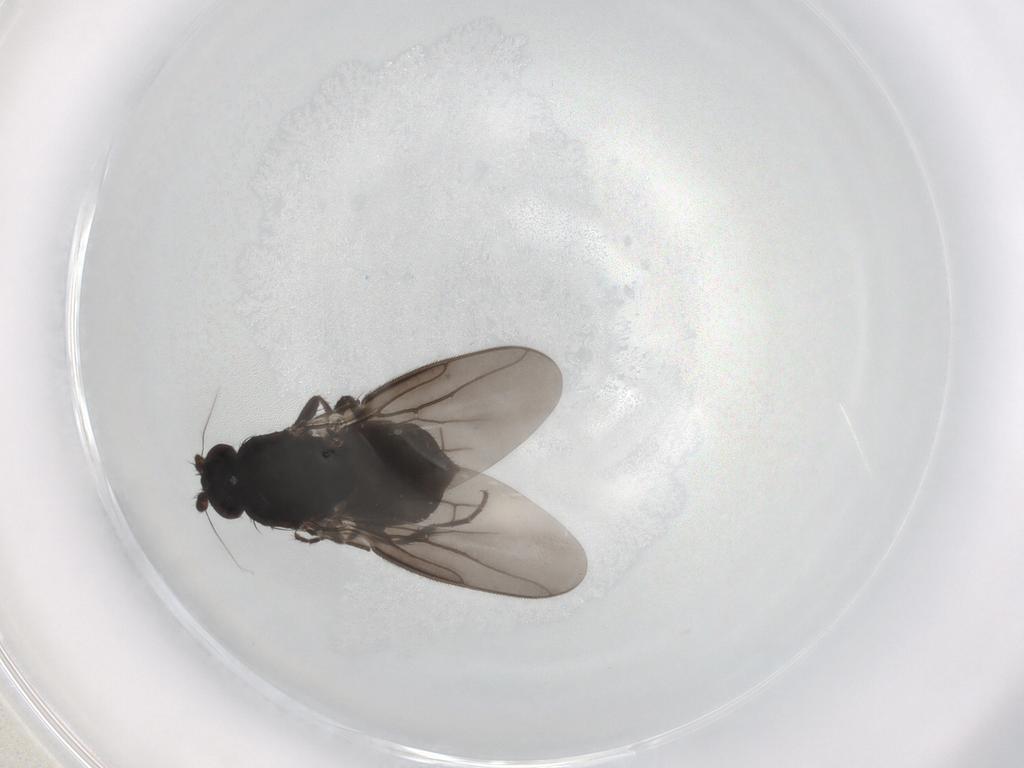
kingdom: Animalia
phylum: Arthropoda
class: Insecta
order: Diptera
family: Sphaeroceridae
